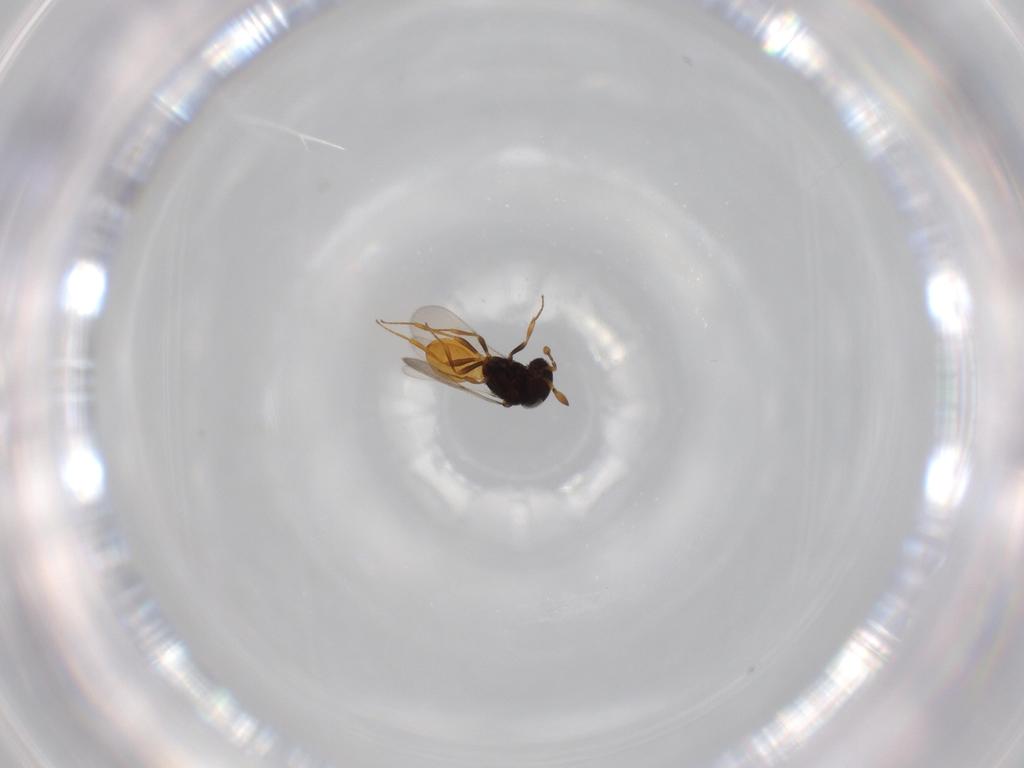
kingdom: Animalia
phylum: Arthropoda
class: Insecta
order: Hymenoptera
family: Scelionidae
